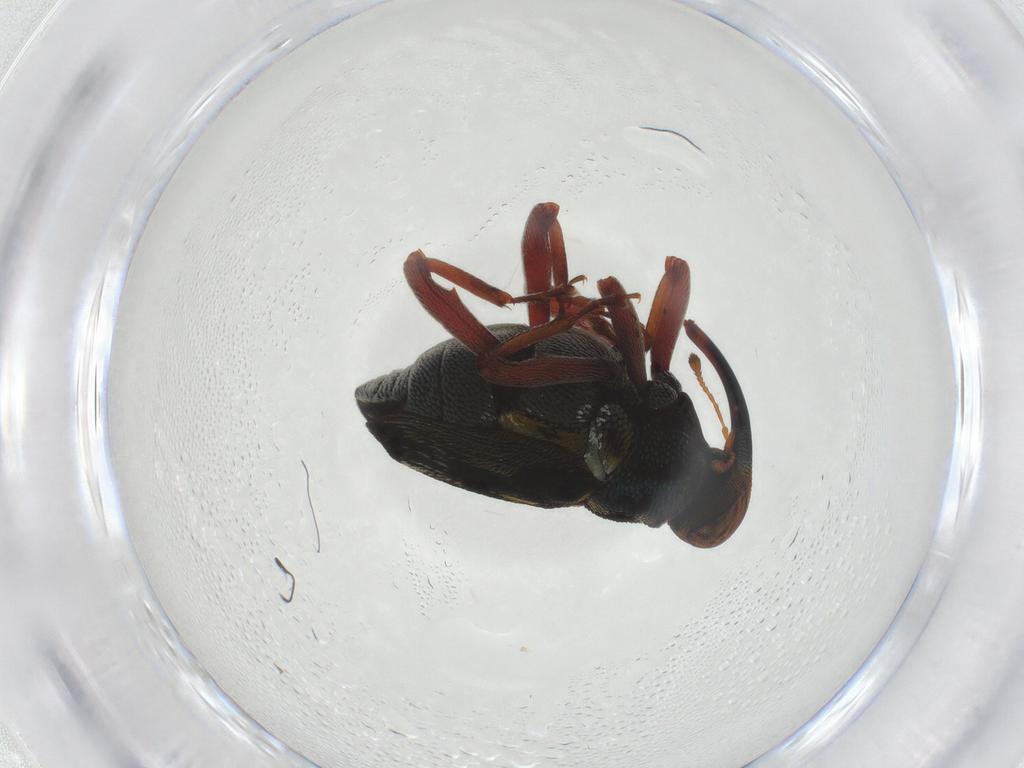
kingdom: Animalia
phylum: Arthropoda
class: Insecta
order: Coleoptera
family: Curculionidae
